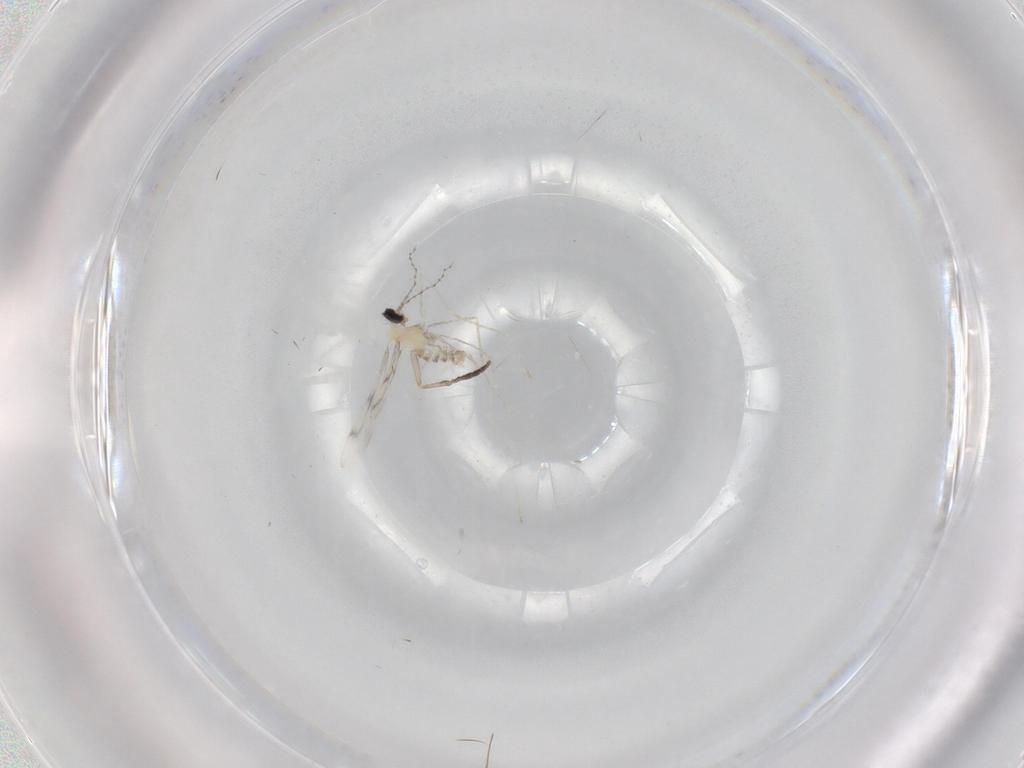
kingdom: Animalia
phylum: Arthropoda
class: Insecta
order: Diptera
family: Cecidomyiidae
